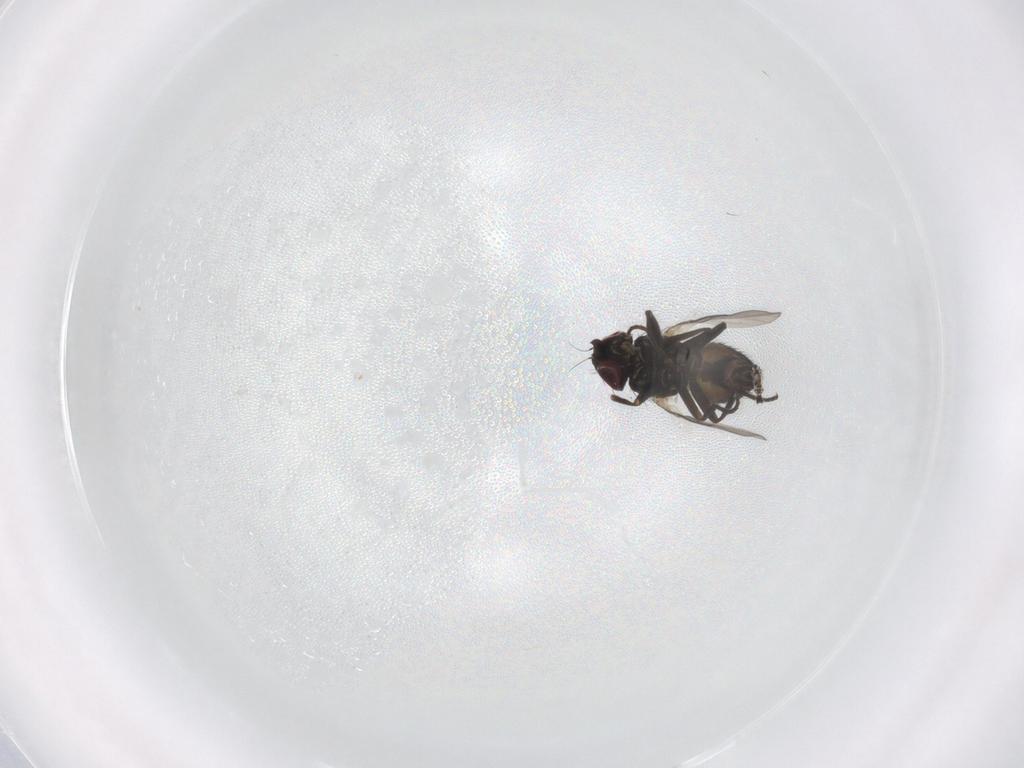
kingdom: Animalia
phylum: Arthropoda
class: Insecta
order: Diptera
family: Agromyzidae
